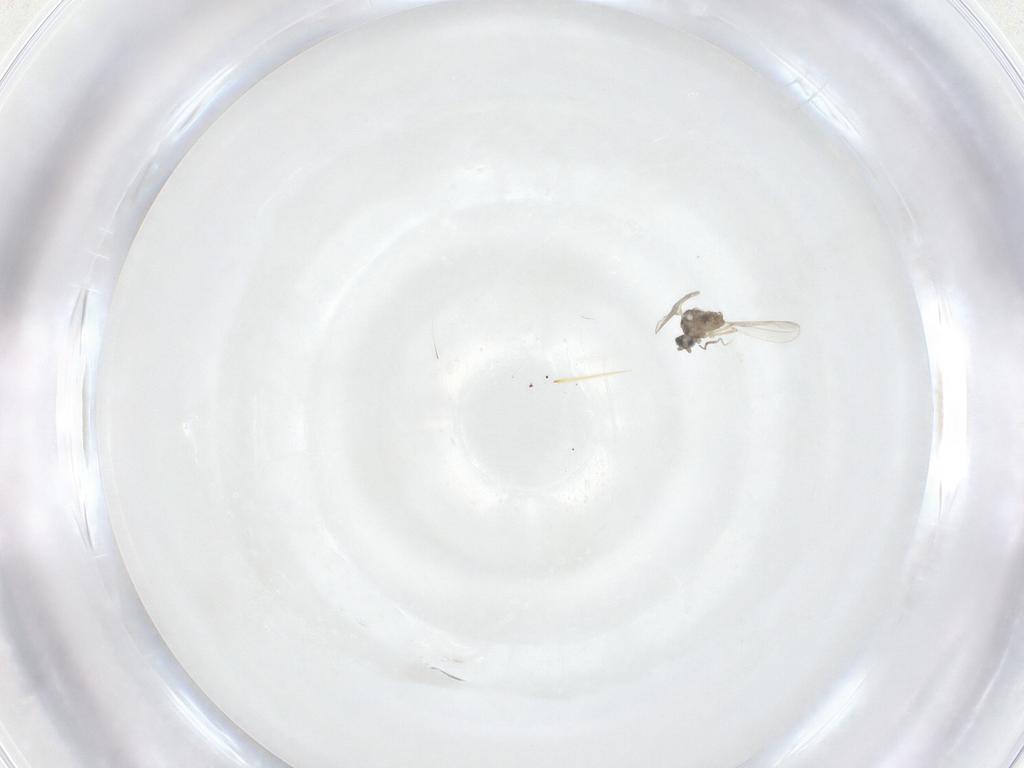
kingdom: Animalia
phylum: Arthropoda
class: Insecta
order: Diptera
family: Cecidomyiidae
